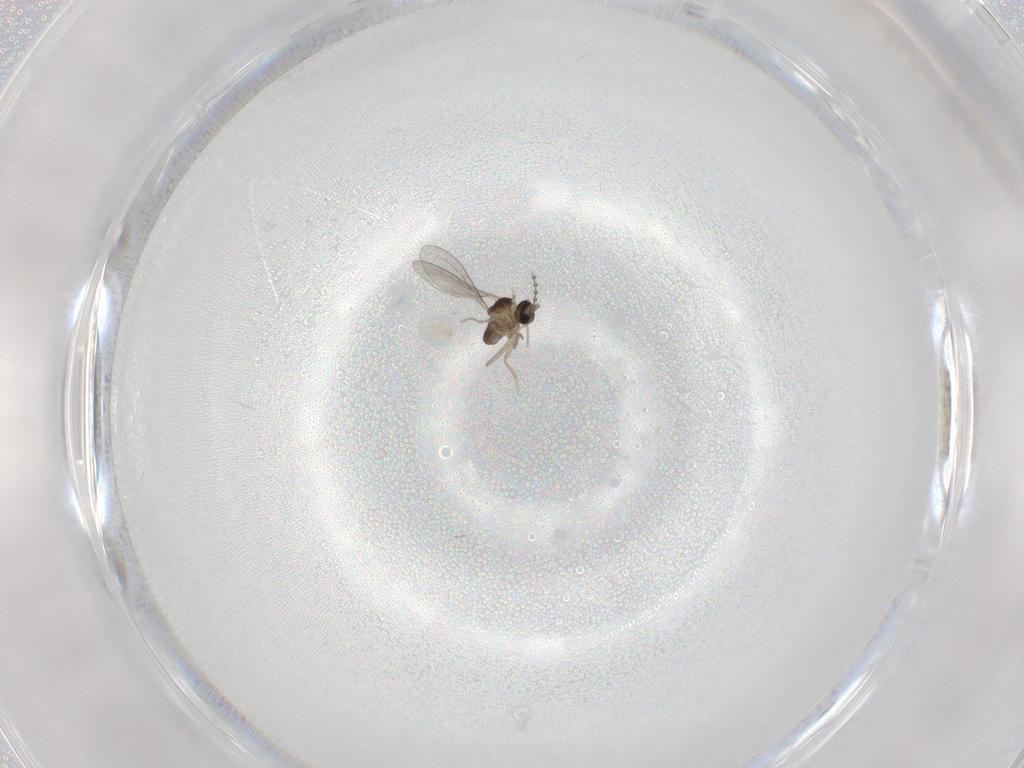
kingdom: Animalia
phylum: Arthropoda
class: Insecta
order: Diptera
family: Cecidomyiidae
